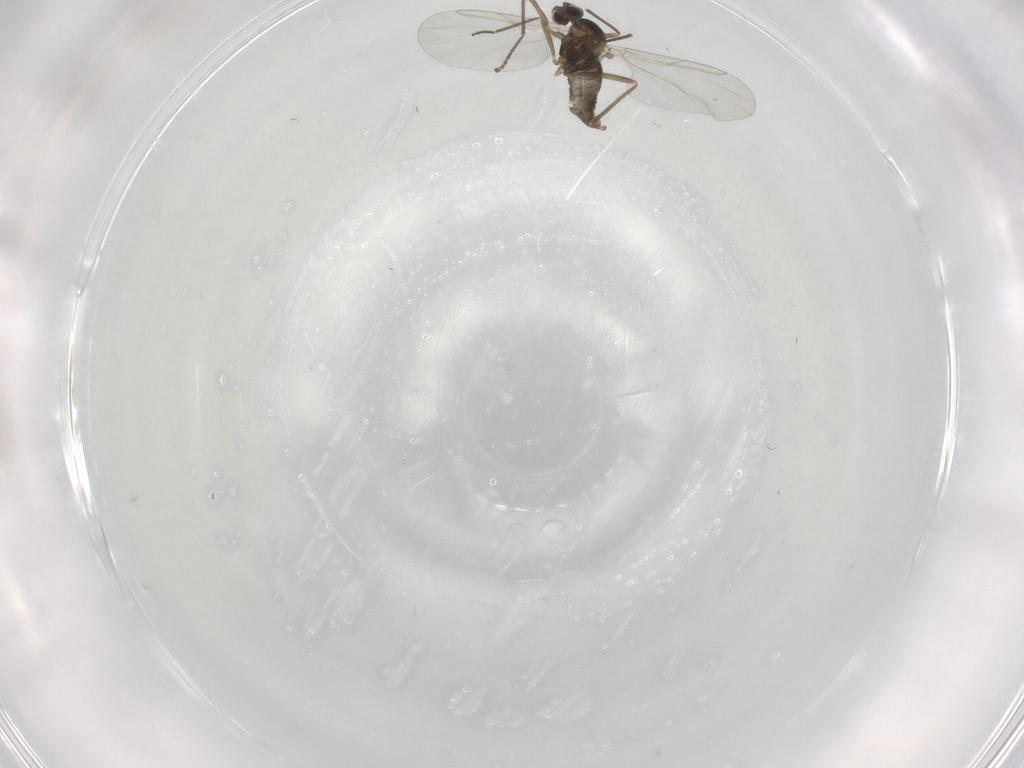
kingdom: Animalia
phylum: Arthropoda
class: Insecta
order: Diptera
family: Cecidomyiidae
